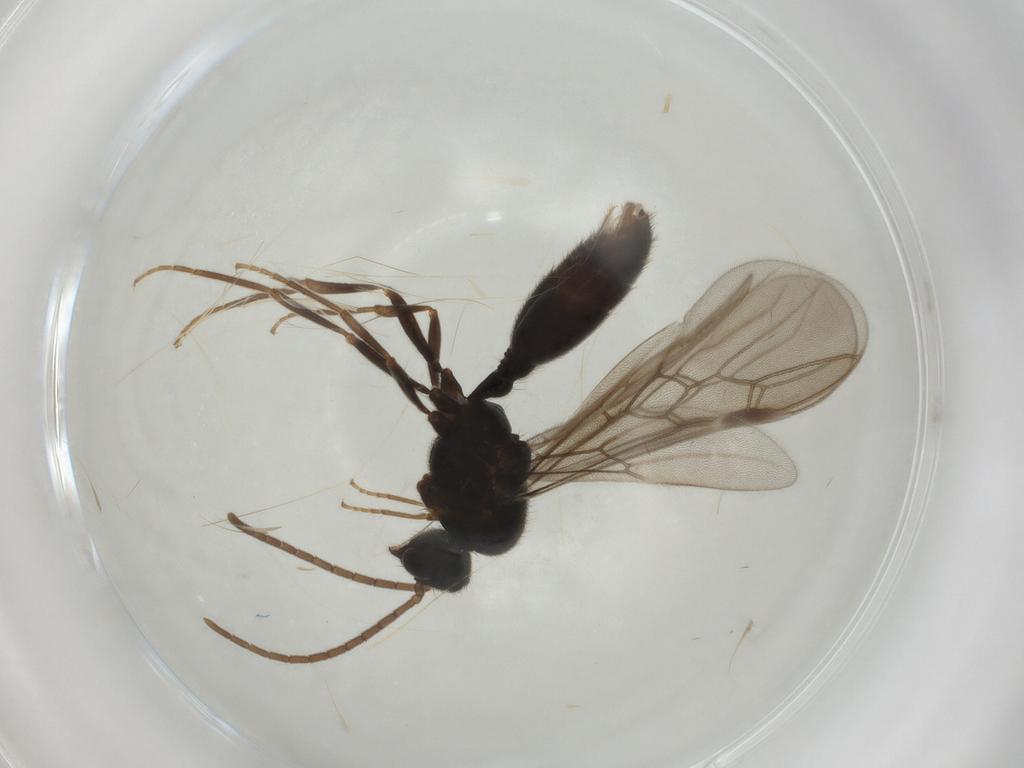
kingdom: Animalia
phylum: Arthropoda
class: Insecta
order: Hymenoptera
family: Formicidae
